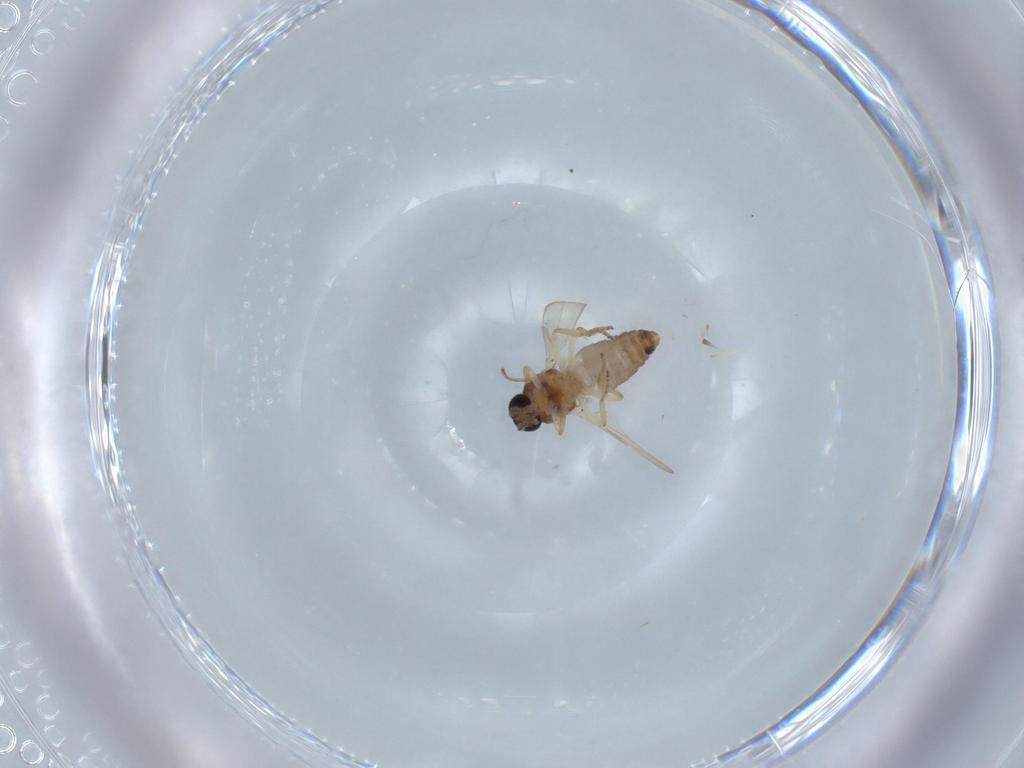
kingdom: Animalia
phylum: Arthropoda
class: Insecta
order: Diptera
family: Ceratopogonidae
